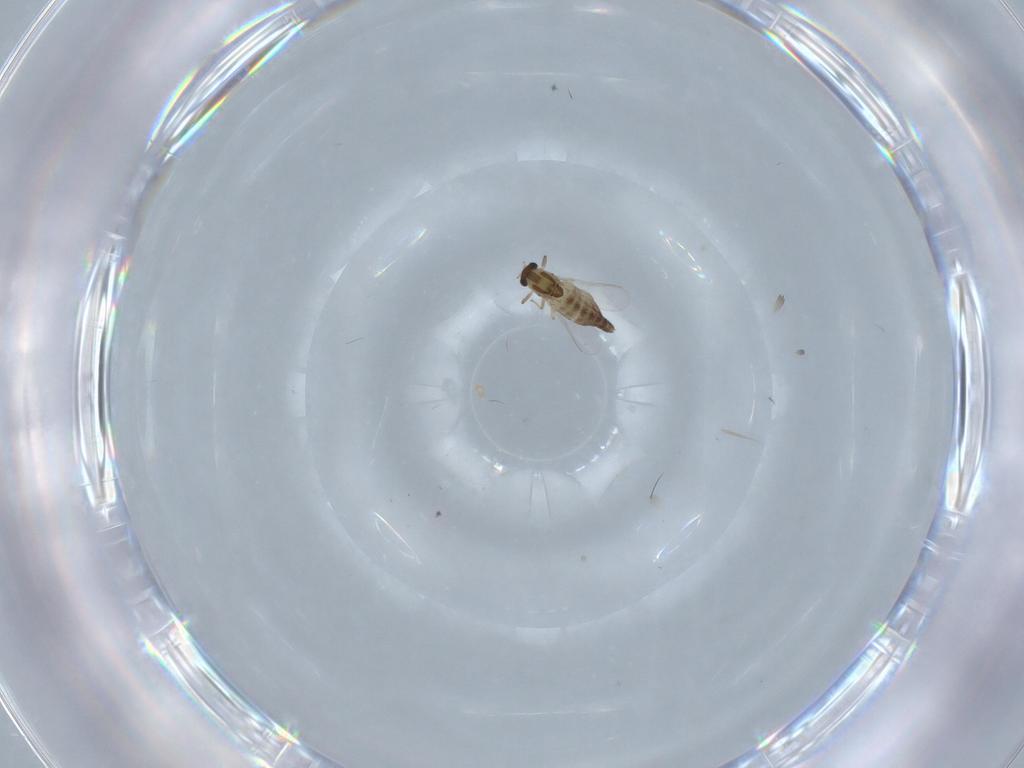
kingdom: Animalia
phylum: Arthropoda
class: Insecta
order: Diptera
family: Chironomidae
